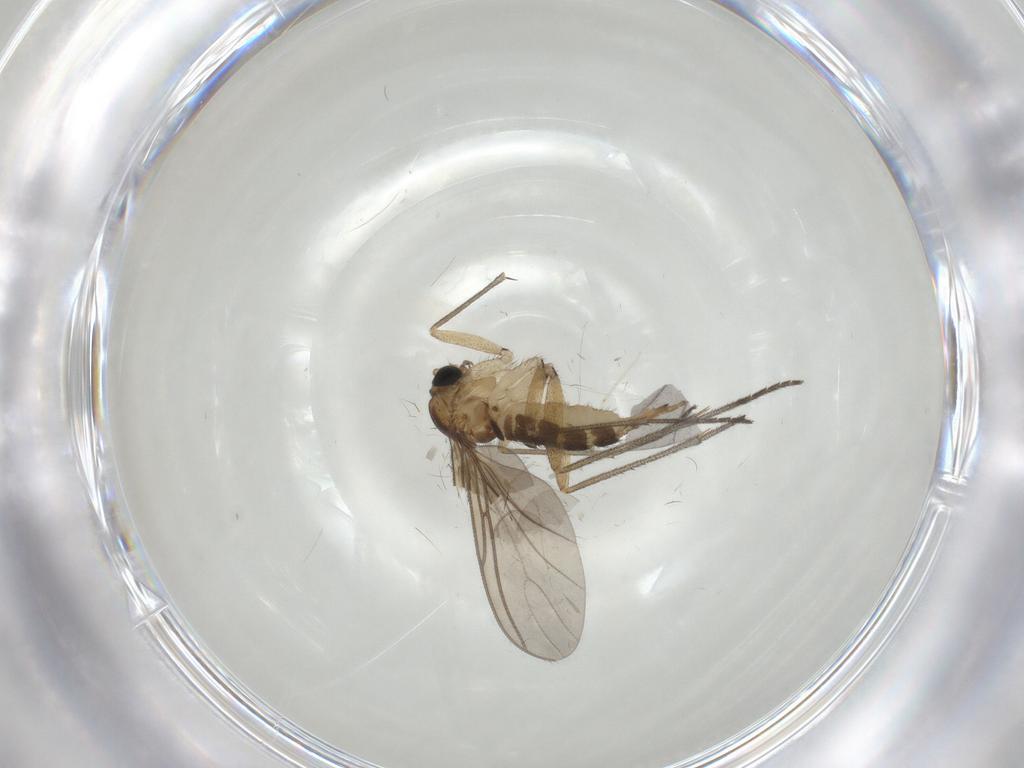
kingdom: Animalia
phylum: Arthropoda
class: Insecta
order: Diptera
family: Sciaridae
